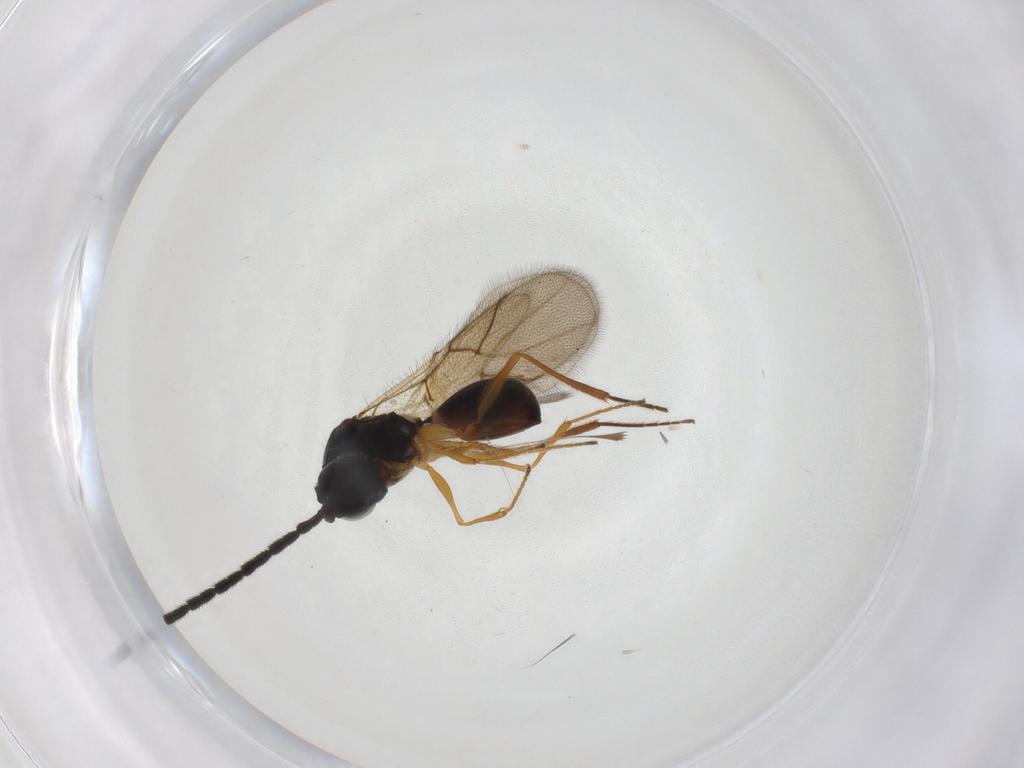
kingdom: Animalia
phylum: Arthropoda
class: Insecta
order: Hymenoptera
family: Figitidae
